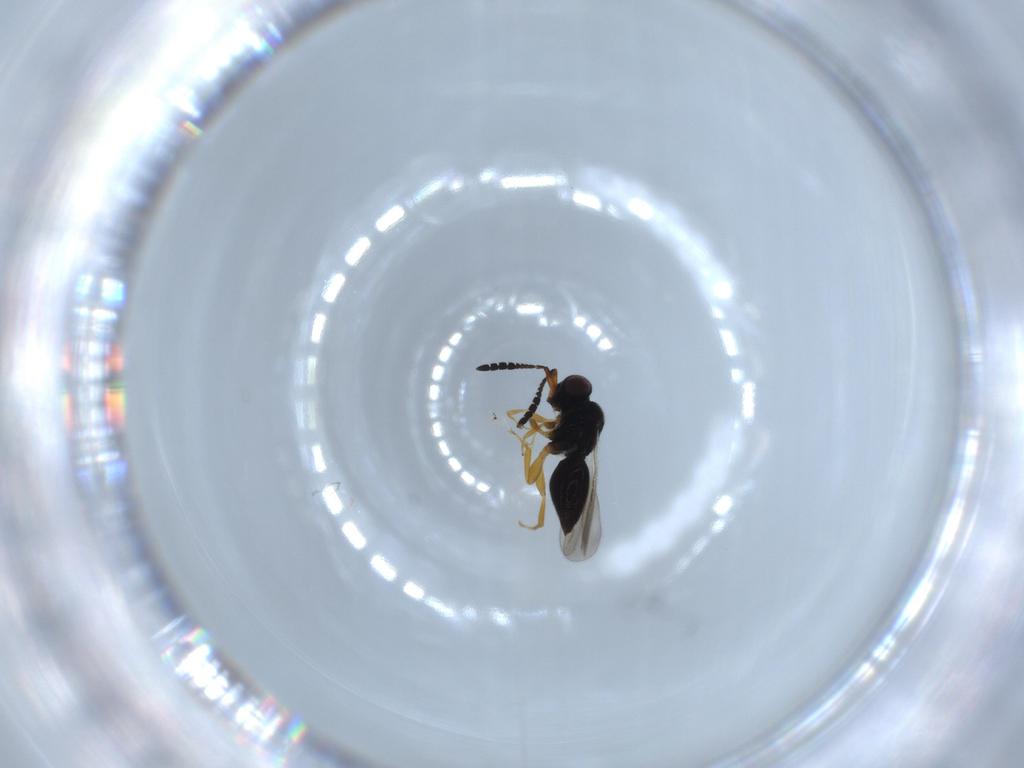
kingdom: Animalia
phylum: Arthropoda
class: Insecta
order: Hymenoptera
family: Ceraphronidae
